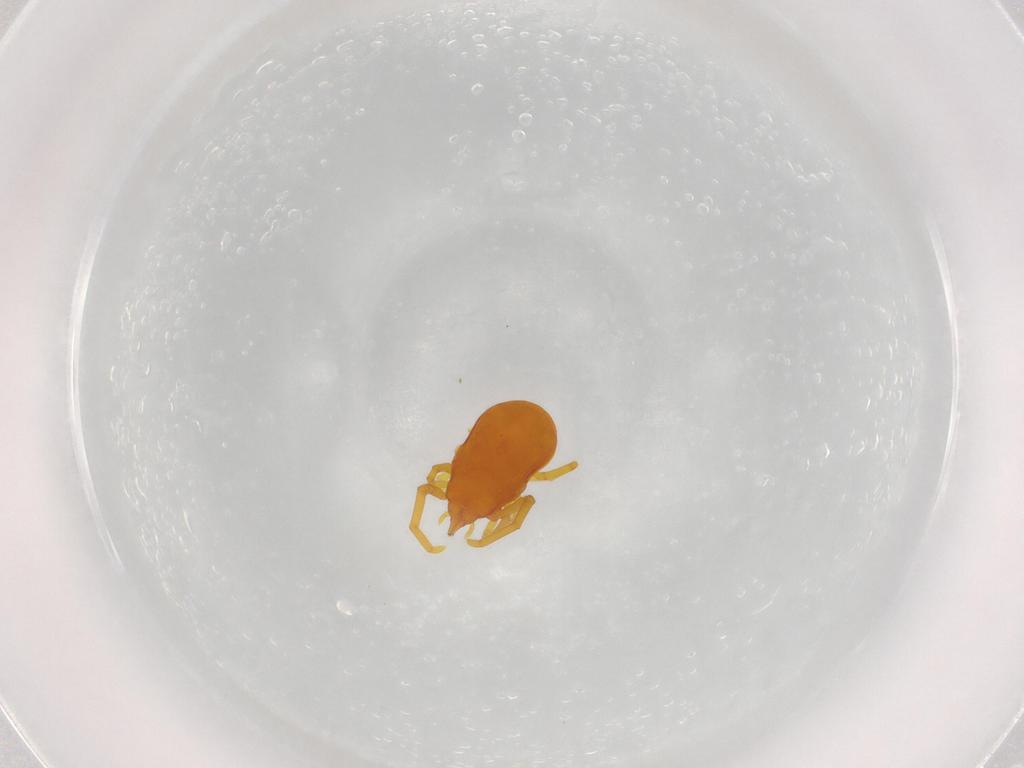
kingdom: Animalia
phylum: Arthropoda
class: Arachnida
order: Trombidiformes
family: Labidostommidae
